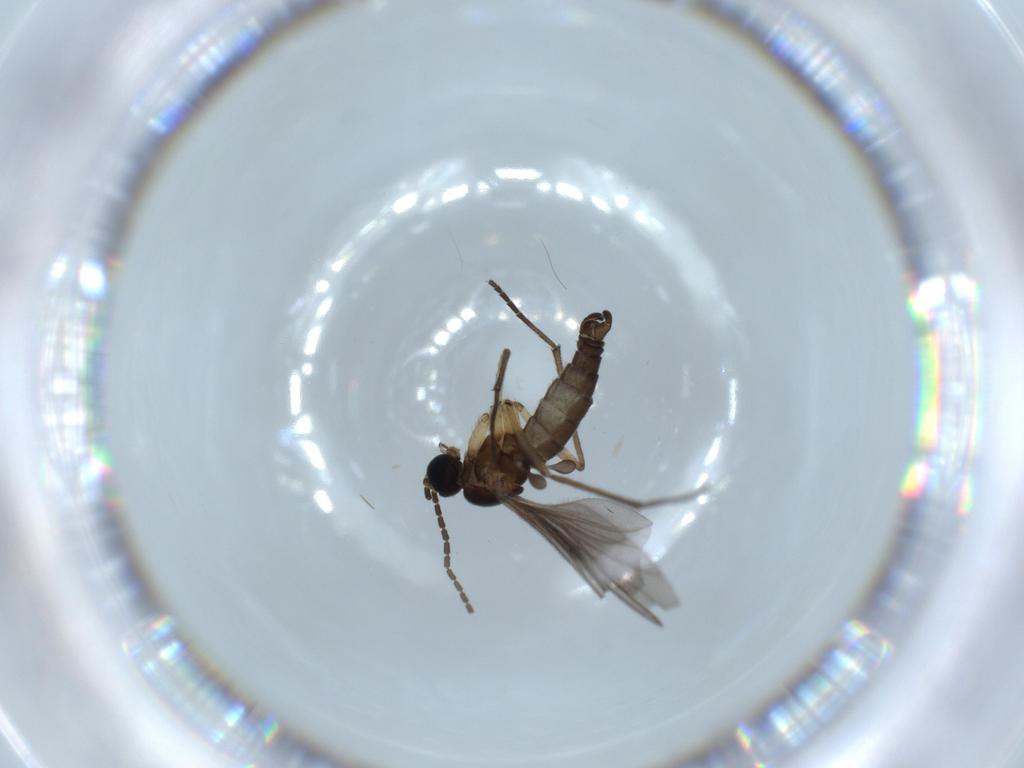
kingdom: Animalia
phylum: Arthropoda
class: Insecta
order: Diptera
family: Sciaridae
